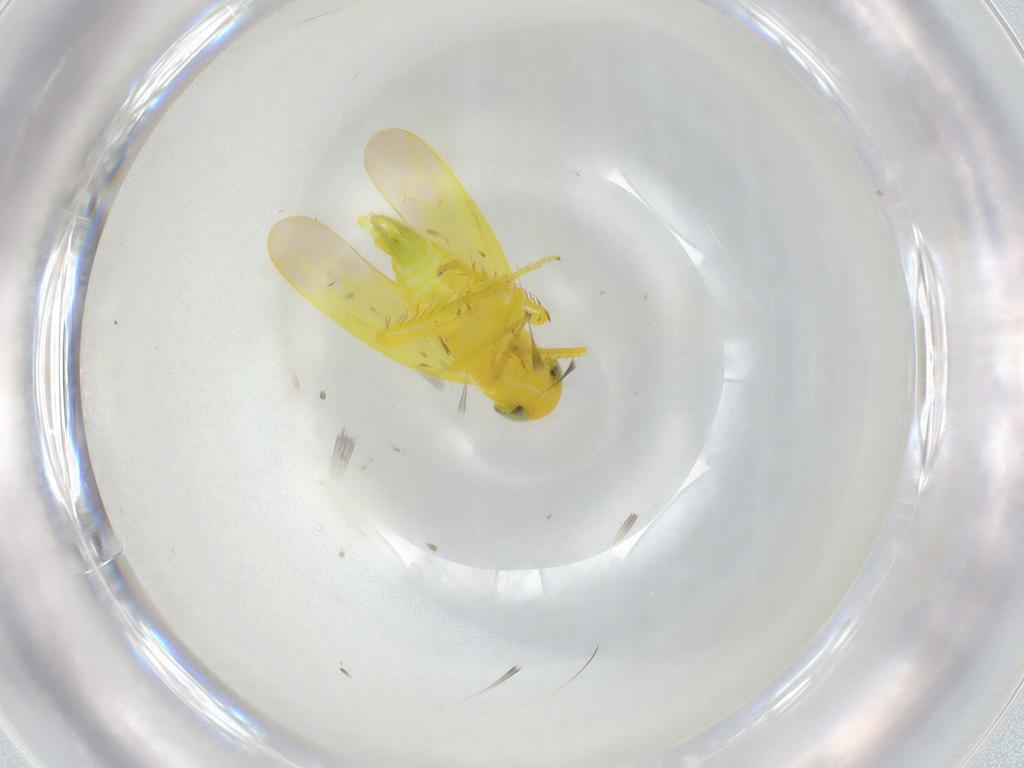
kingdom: Animalia
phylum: Arthropoda
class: Insecta
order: Hemiptera
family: Cicadellidae
